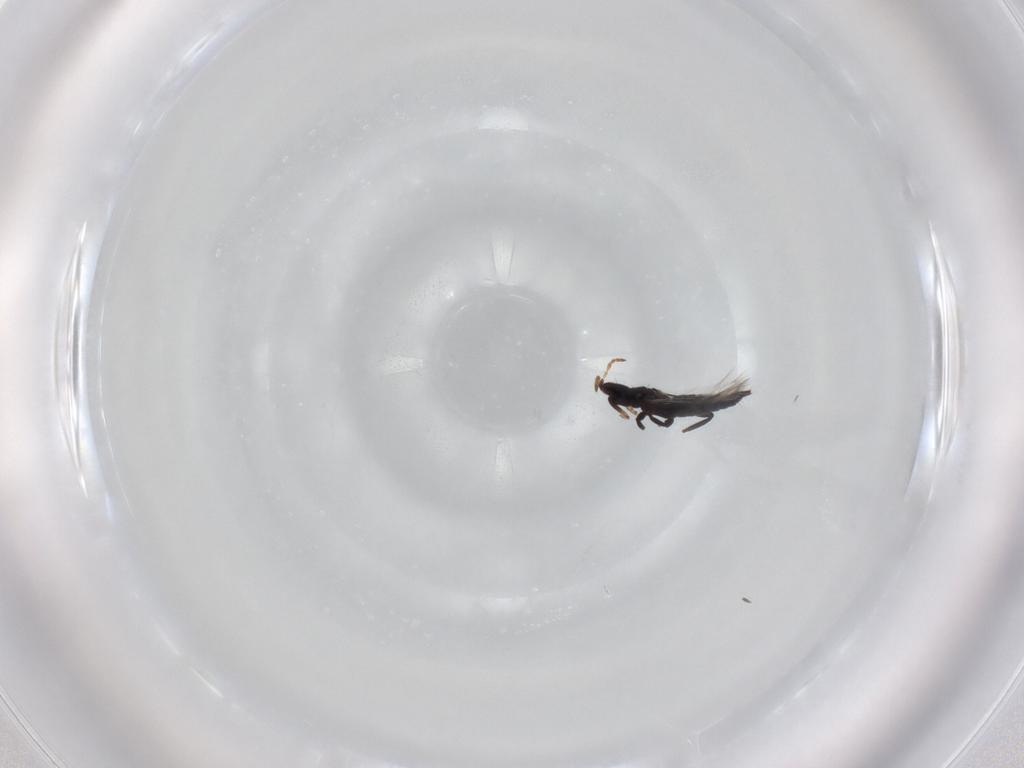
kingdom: Animalia
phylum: Arthropoda
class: Insecta
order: Thysanoptera
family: Phlaeothripidae
